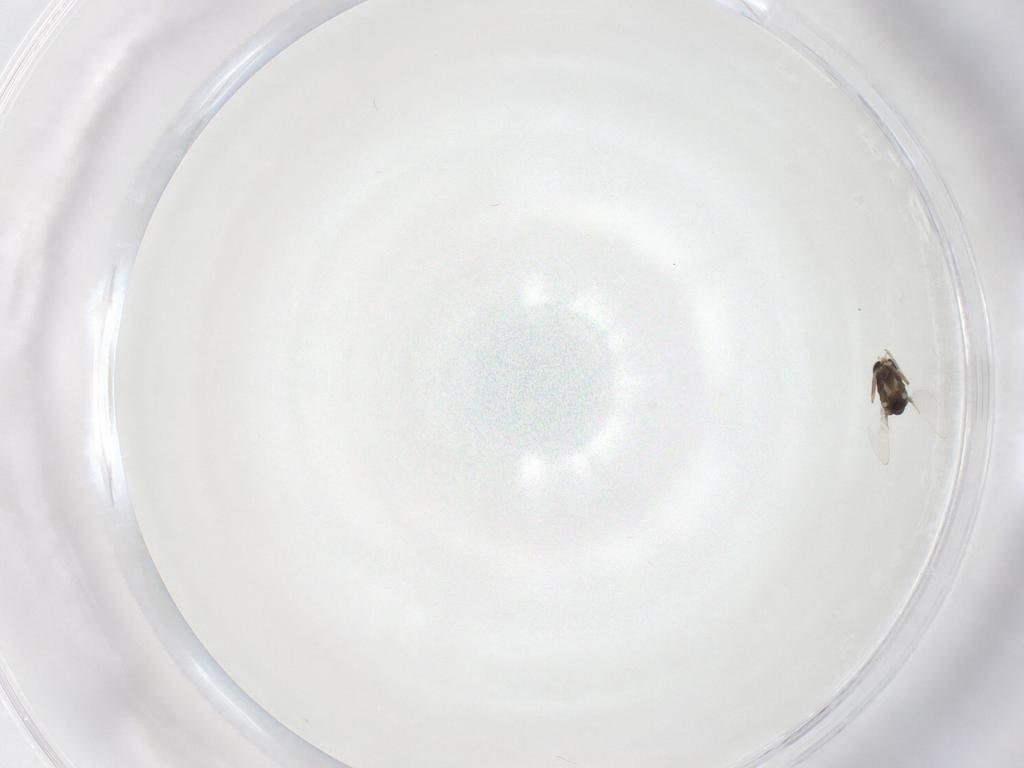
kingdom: Animalia
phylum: Arthropoda
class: Insecta
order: Diptera
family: Chironomidae
